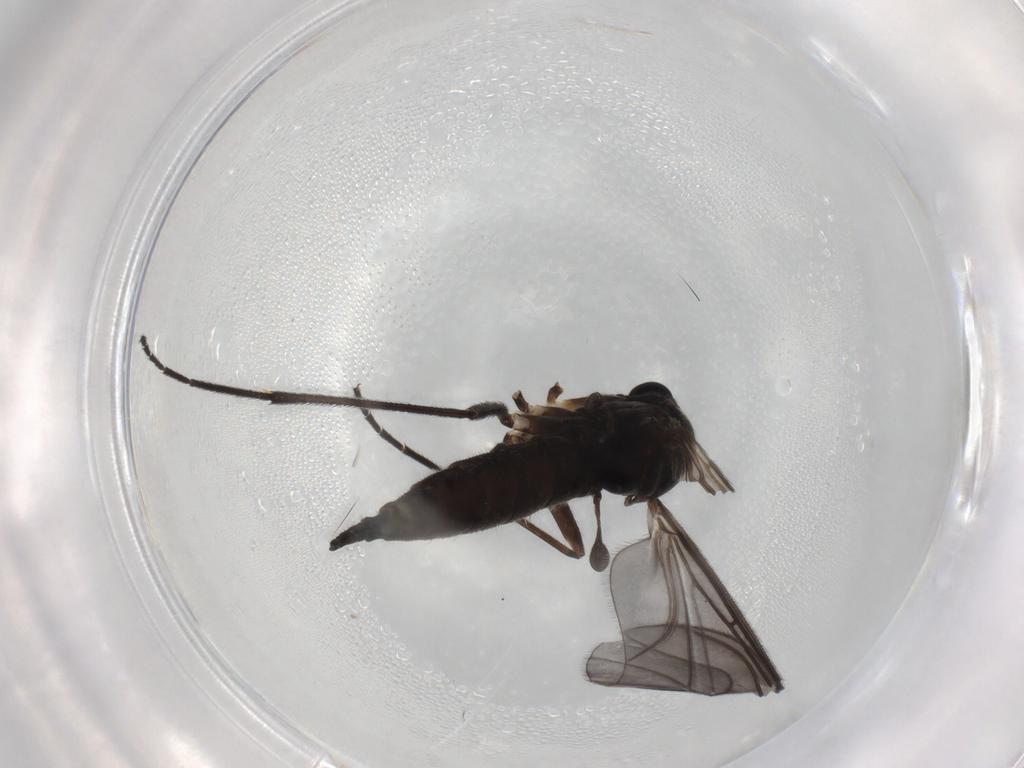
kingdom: Animalia
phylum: Arthropoda
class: Insecta
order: Diptera
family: Sciaridae
